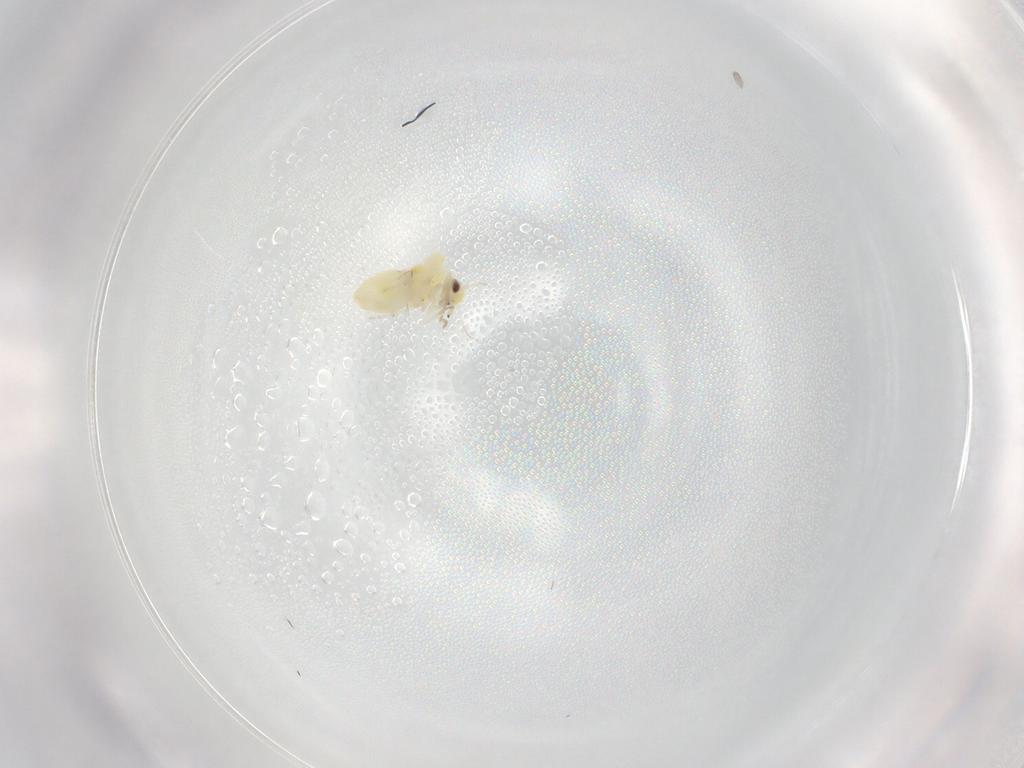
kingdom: Animalia
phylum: Arthropoda
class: Insecta
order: Hemiptera
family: Aleyrodidae
